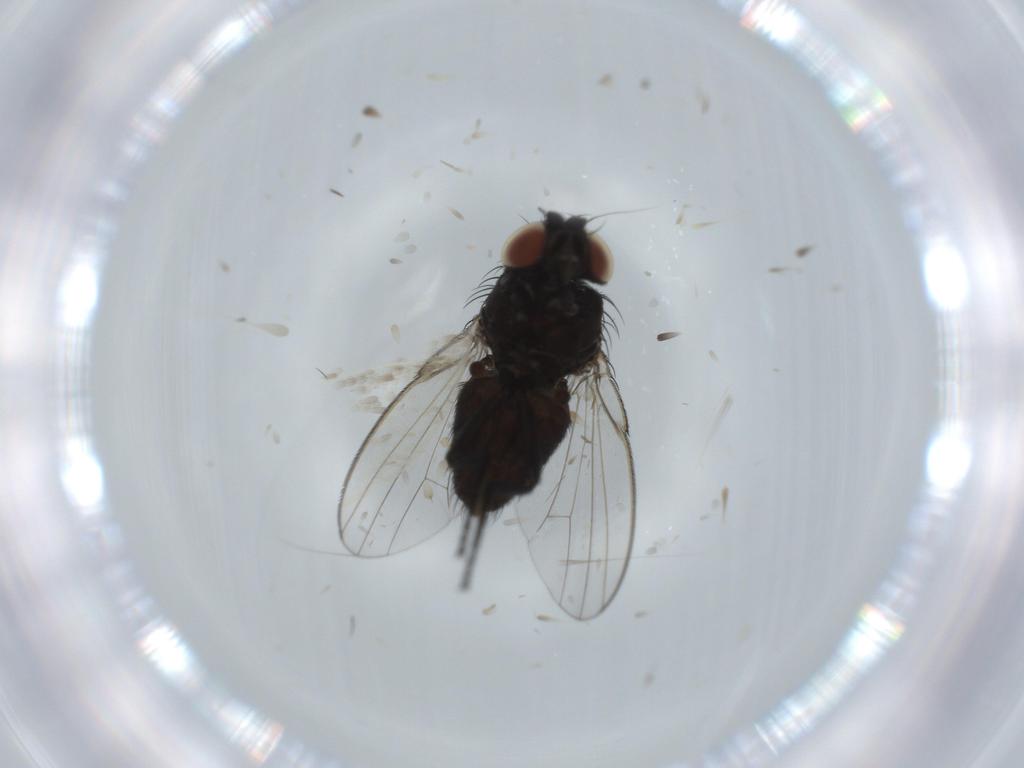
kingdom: Animalia
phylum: Arthropoda
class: Insecta
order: Diptera
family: Milichiidae
